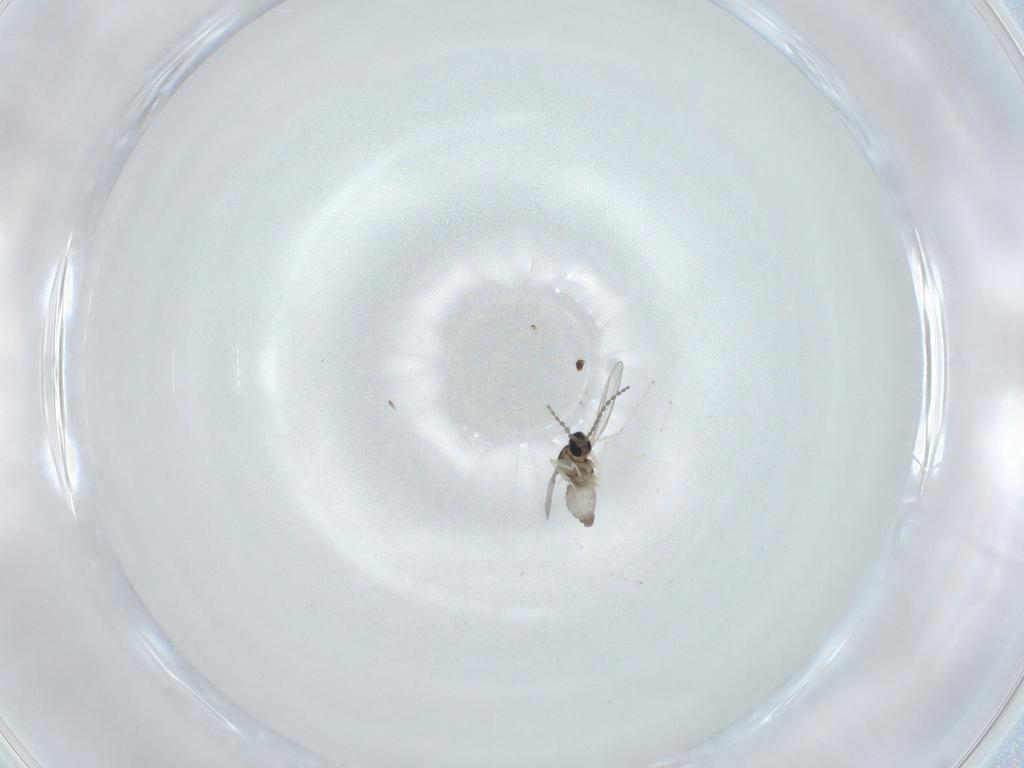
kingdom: Animalia
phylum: Arthropoda
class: Insecta
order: Diptera
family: Cecidomyiidae
